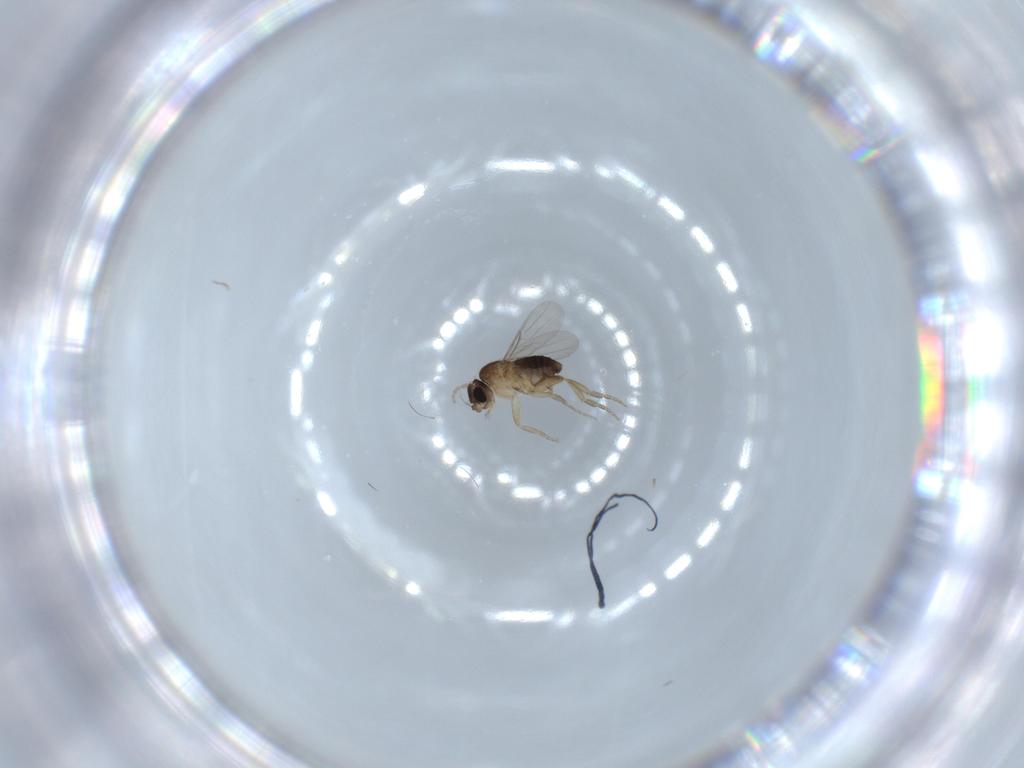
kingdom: Animalia
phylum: Arthropoda
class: Insecta
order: Diptera
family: Phoridae
